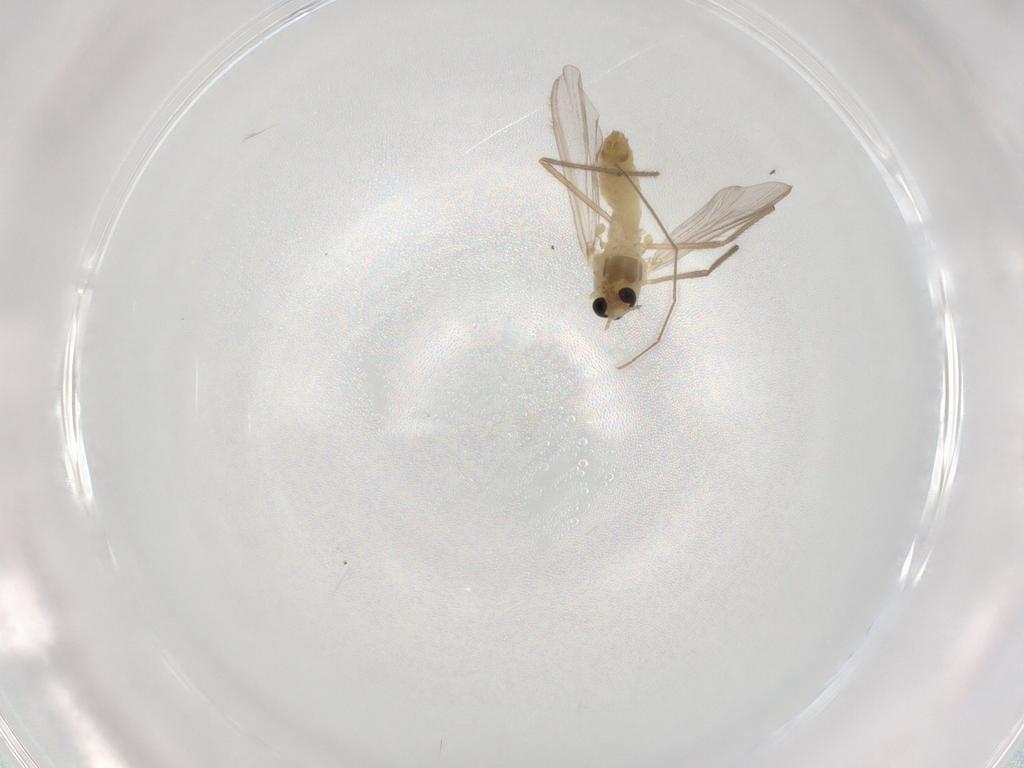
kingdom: Animalia
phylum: Arthropoda
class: Insecta
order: Diptera
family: Chironomidae
